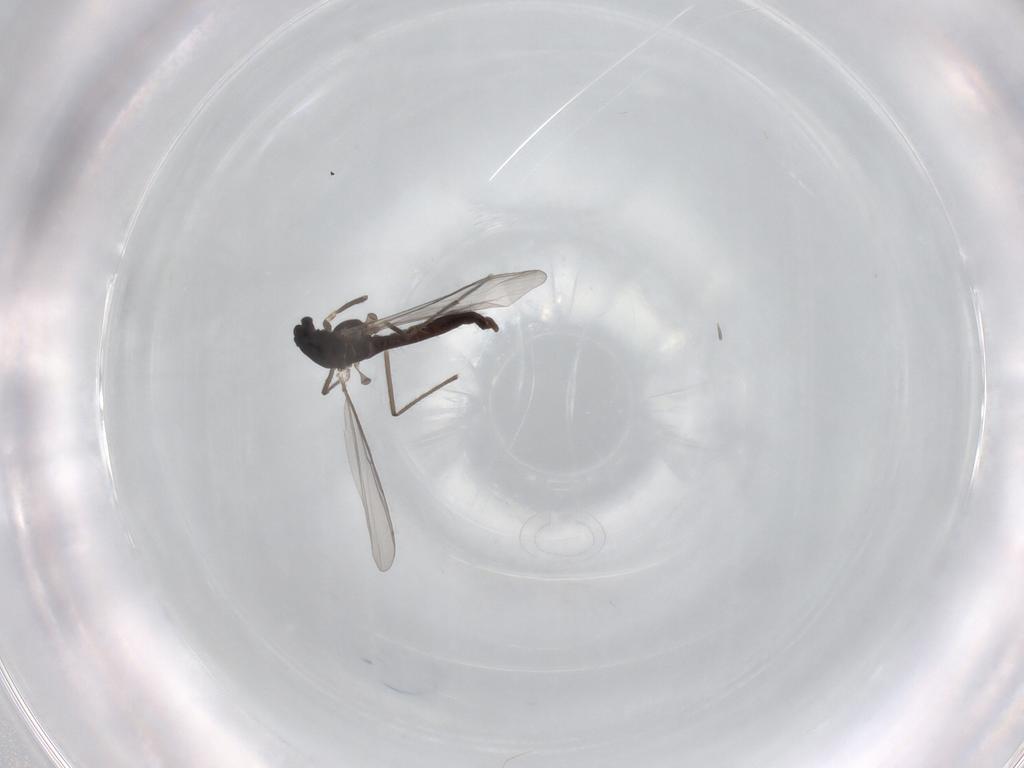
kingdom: Animalia
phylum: Arthropoda
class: Insecta
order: Diptera
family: Chironomidae
